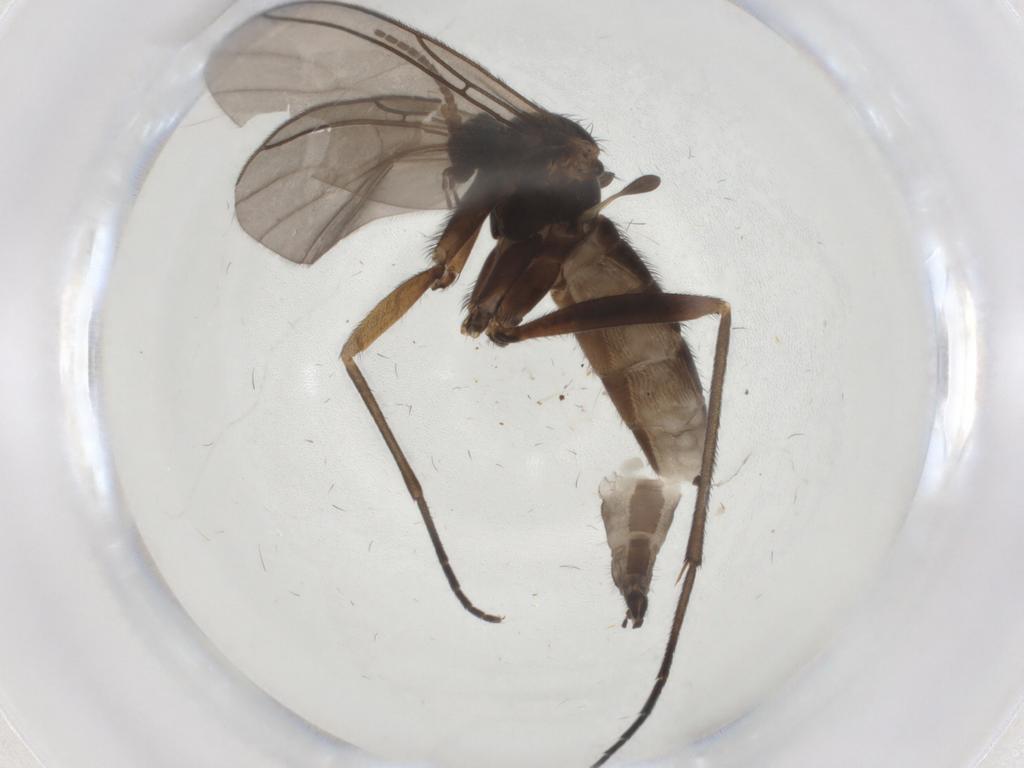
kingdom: Animalia
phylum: Arthropoda
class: Insecta
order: Diptera
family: Sciaridae
